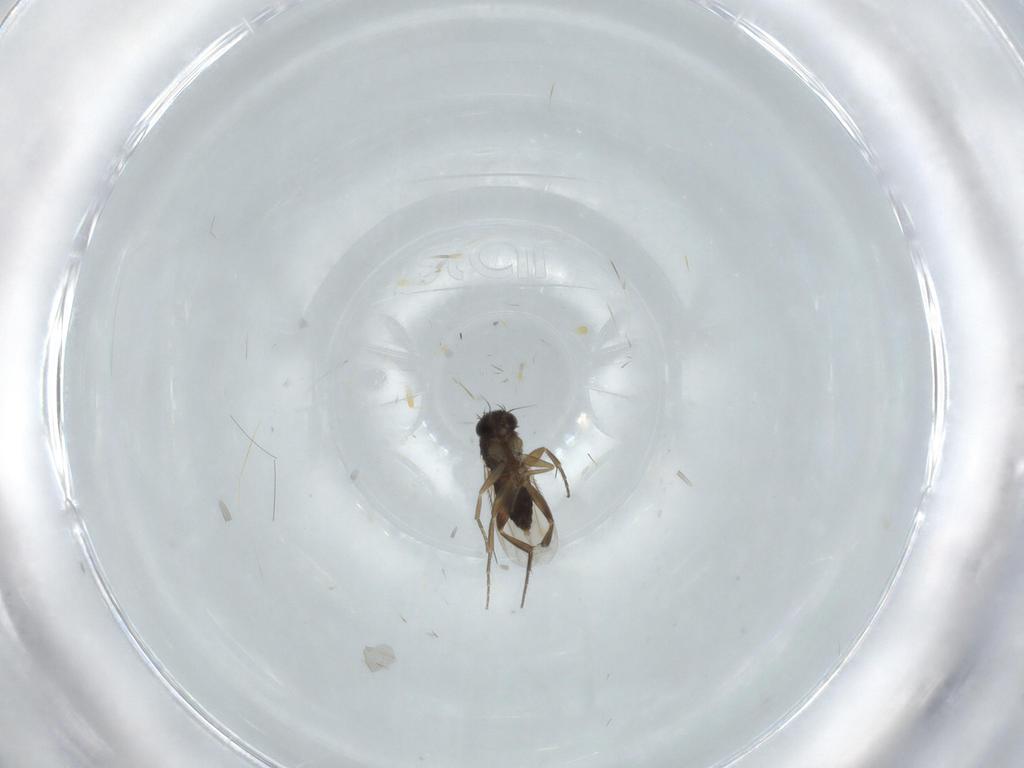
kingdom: Animalia
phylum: Arthropoda
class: Insecta
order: Diptera
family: Phoridae
